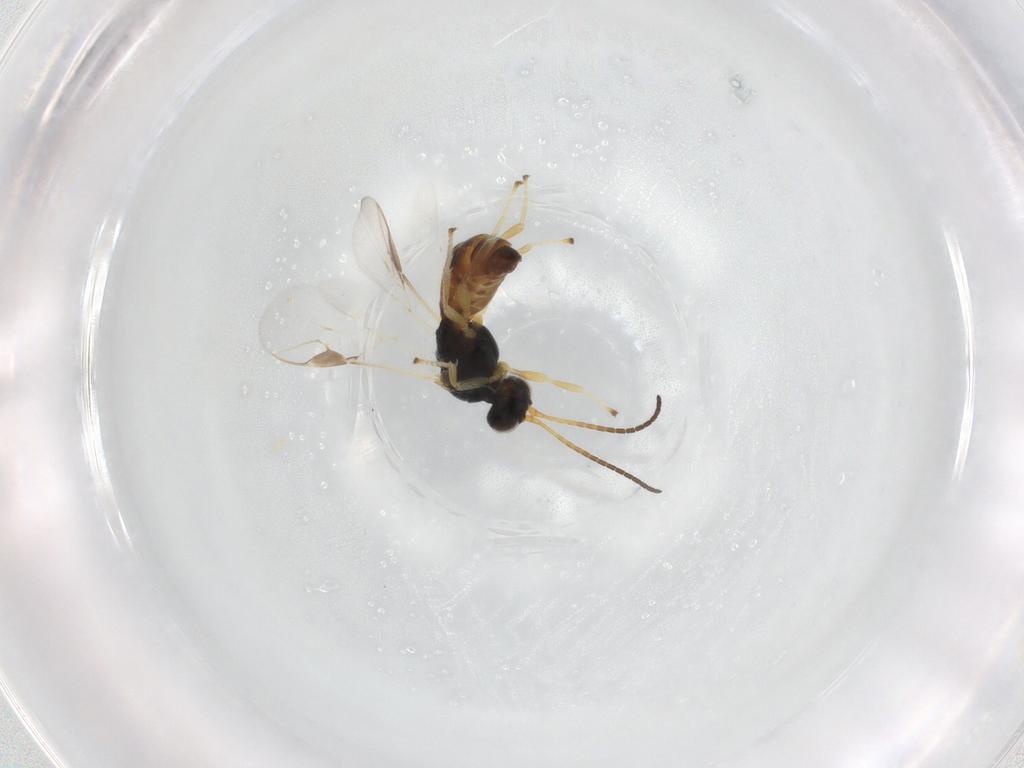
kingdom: Animalia
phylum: Arthropoda
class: Insecta
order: Hymenoptera
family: Braconidae
